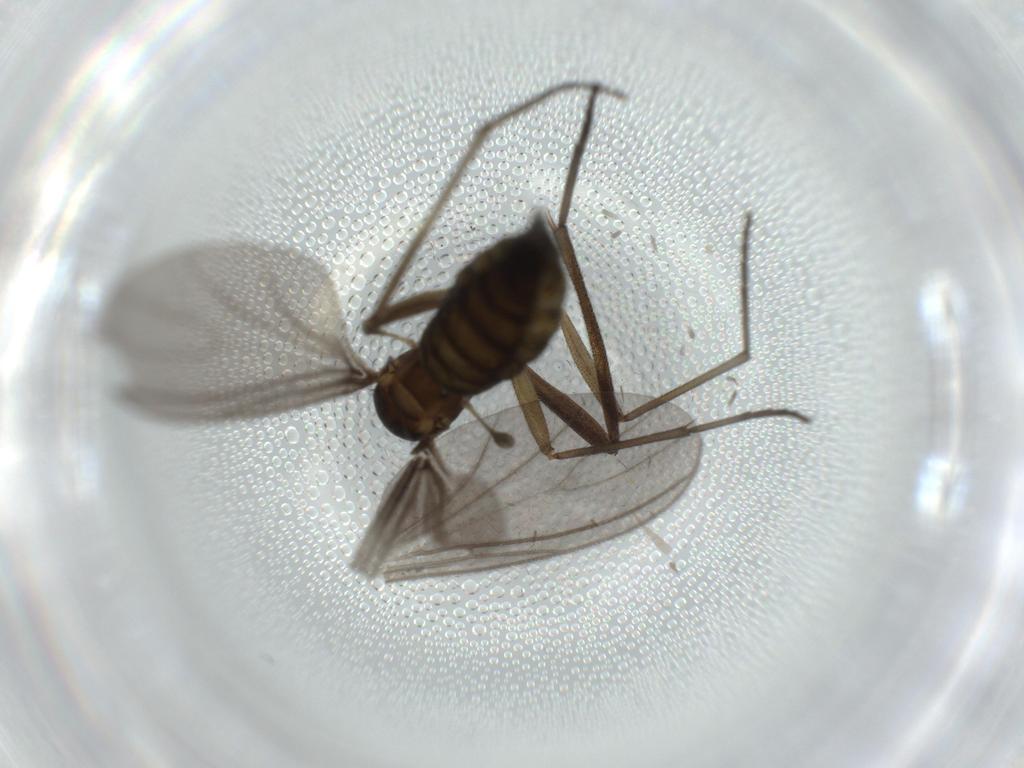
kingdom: Animalia
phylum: Arthropoda
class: Insecta
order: Diptera
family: Sciaridae
